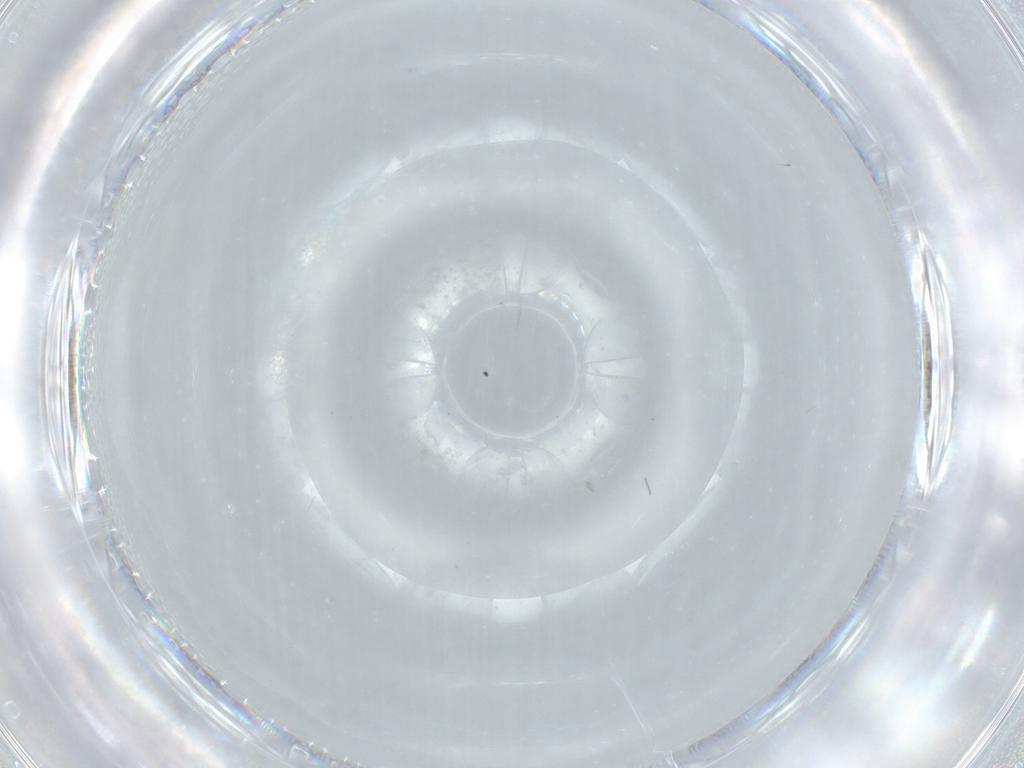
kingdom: Animalia
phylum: Arthropoda
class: Insecta
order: Diptera
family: Cecidomyiidae
